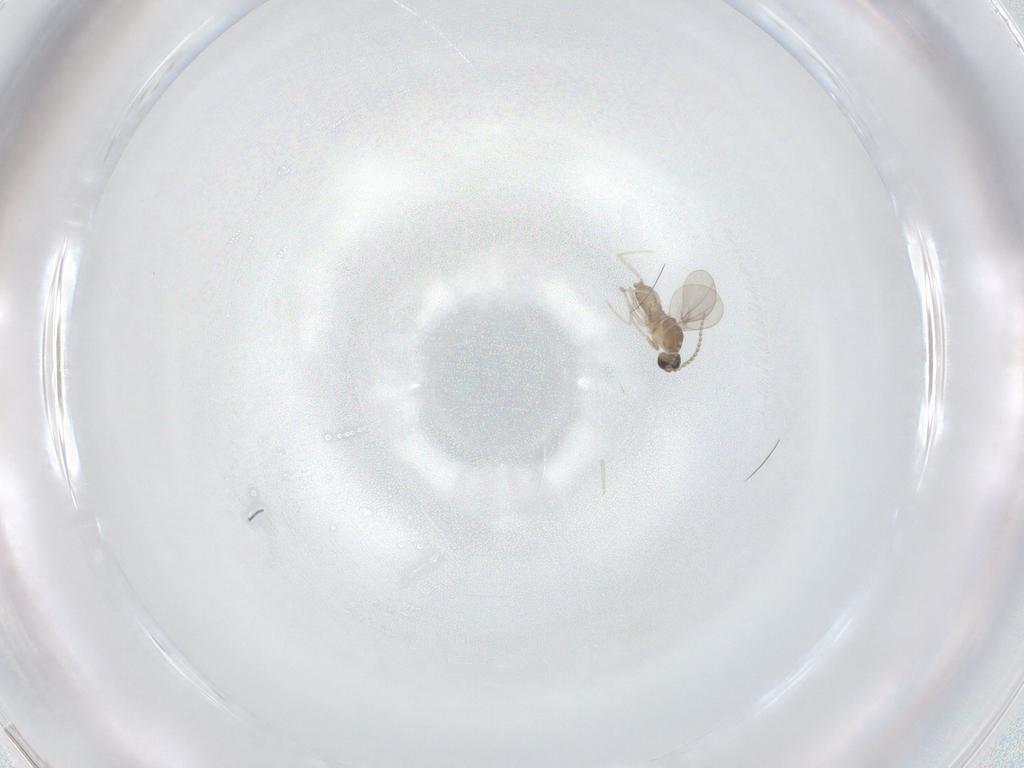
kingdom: Animalia
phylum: Arthropoda
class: Insecta
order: Diptera
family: Cecidomyiidae
